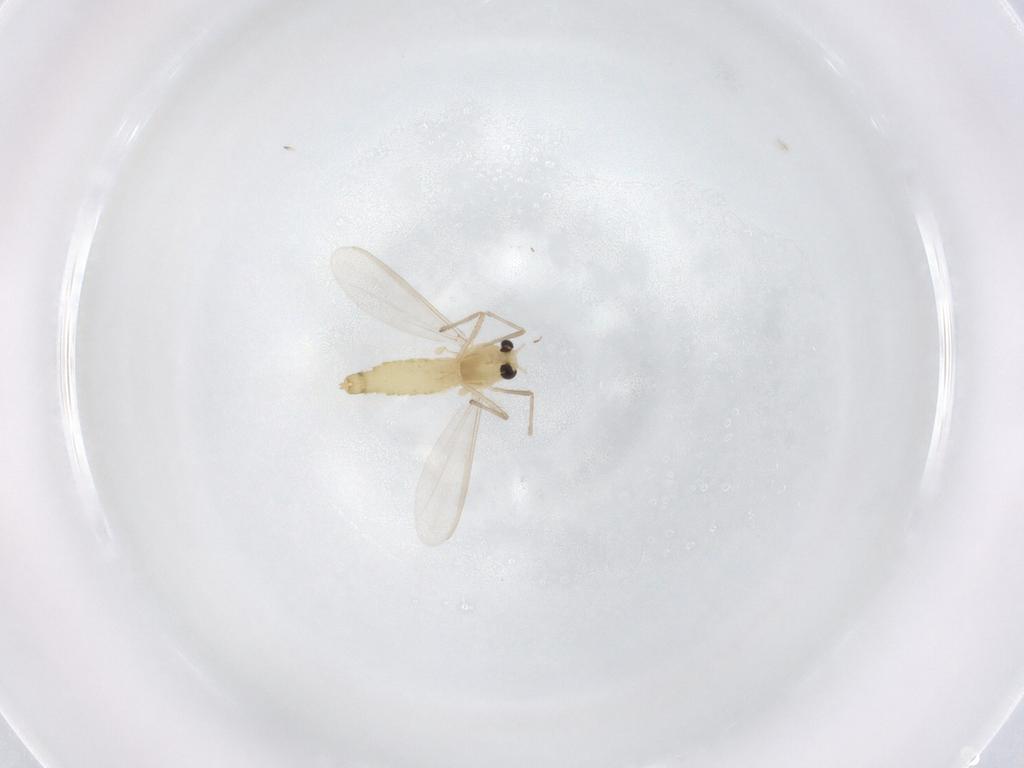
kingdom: Animalia
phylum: Arthropoda
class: Insecta
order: Diptera
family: Chironomidae
